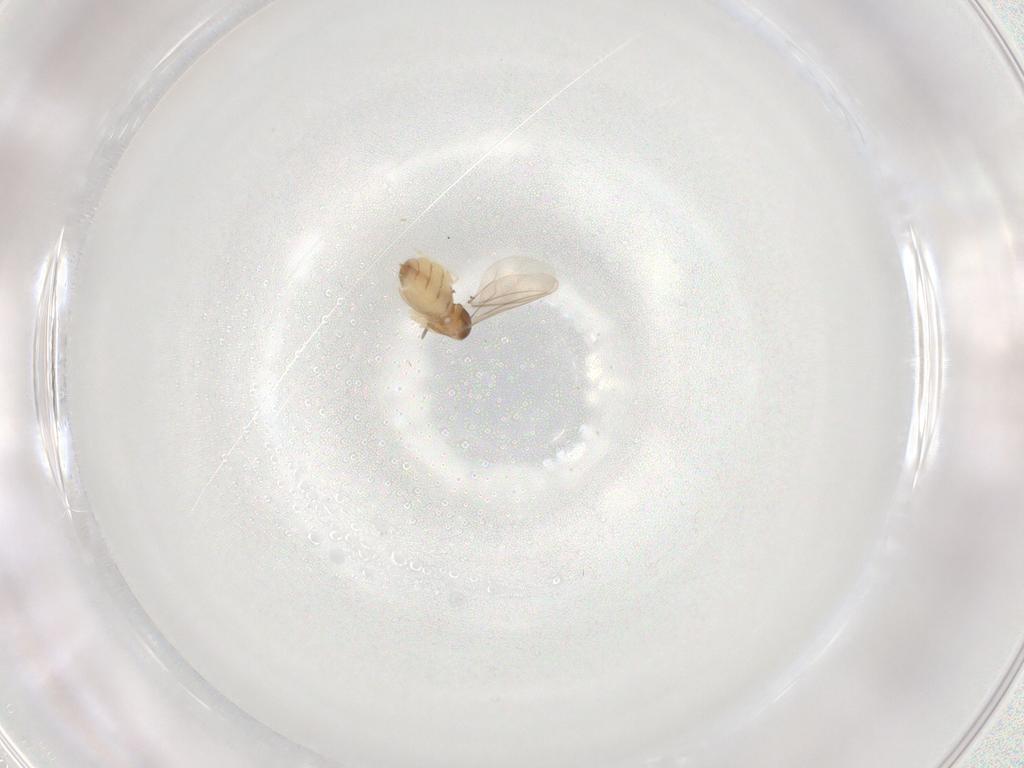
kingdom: Animalia
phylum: Arthropoda
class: Insecta
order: Diptera
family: Cecidomyiidae
